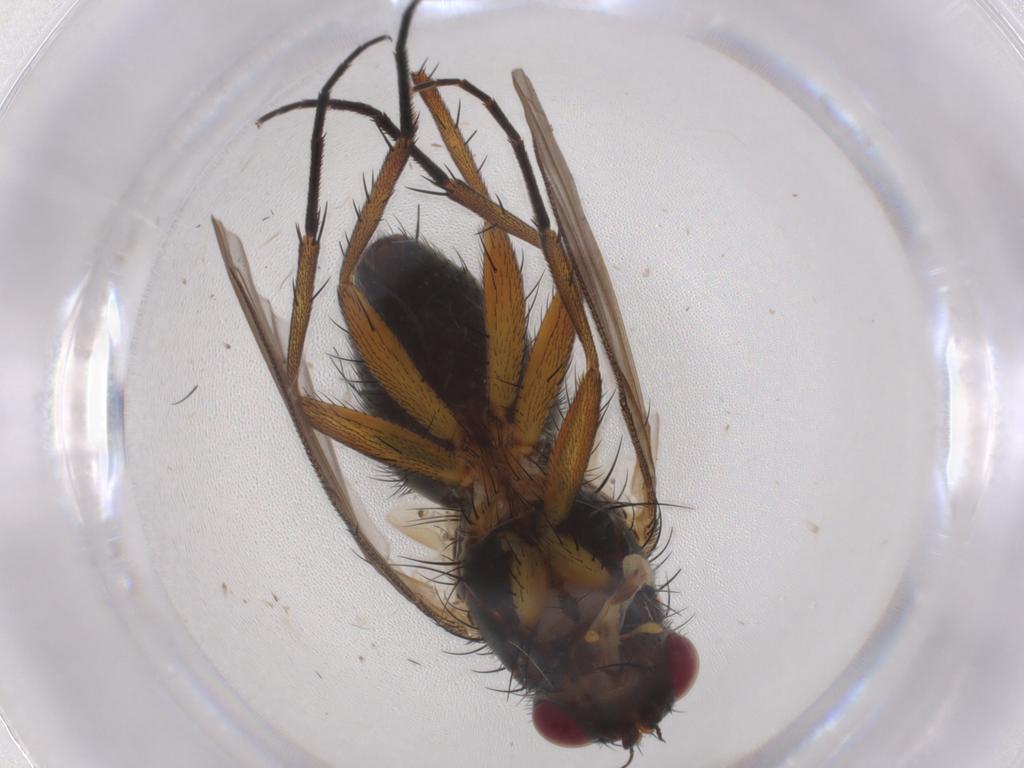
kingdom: Animalia
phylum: Arthropoda
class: Insecta
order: Diptera
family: Anthomyiidae
